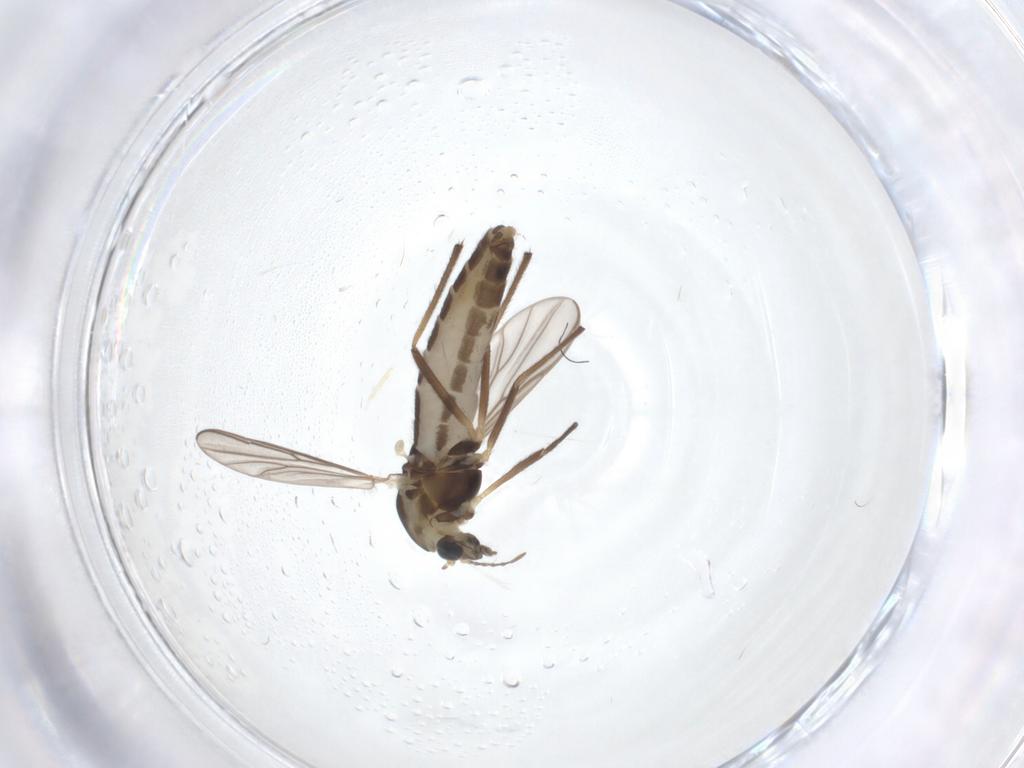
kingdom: Animalia
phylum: Arthropoda
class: Insecta
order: Diptera
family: Chironomidae
